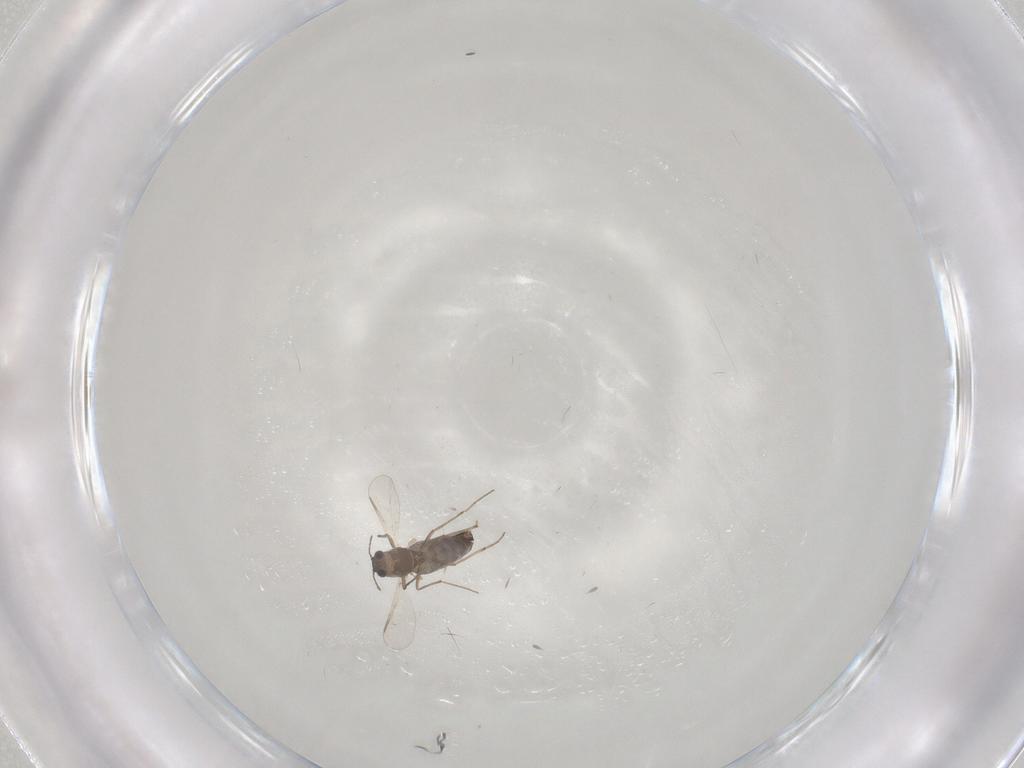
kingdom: Animalia
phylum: Arthropoda
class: Insecta
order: Diptera
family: Chironomidae
